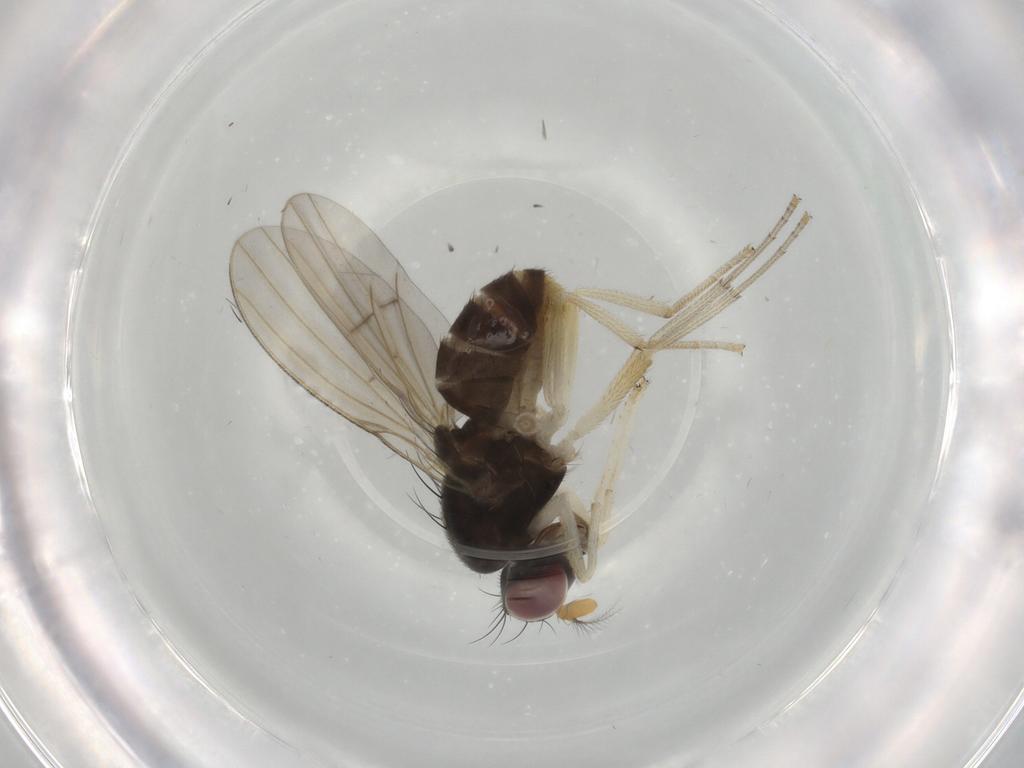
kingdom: Animalia
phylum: Arthropoda
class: Insecta
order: Diptera
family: Syrphidae
